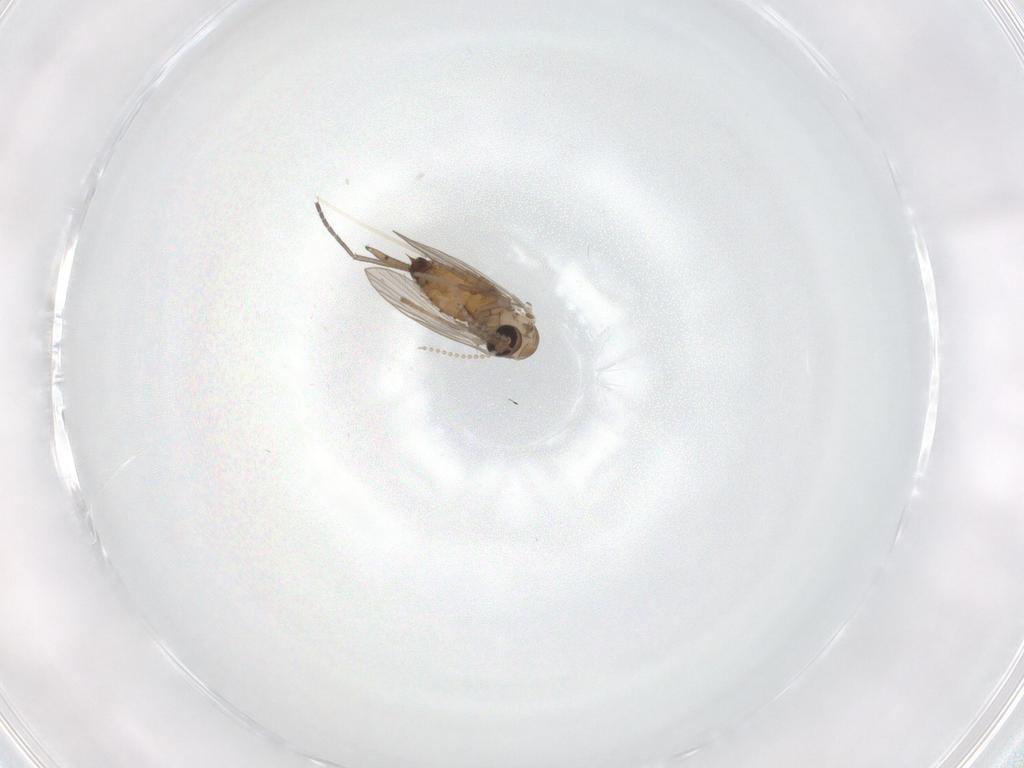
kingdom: Animalia
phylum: Arthropoda
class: Insecta
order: Diptera
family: Psychodidae
